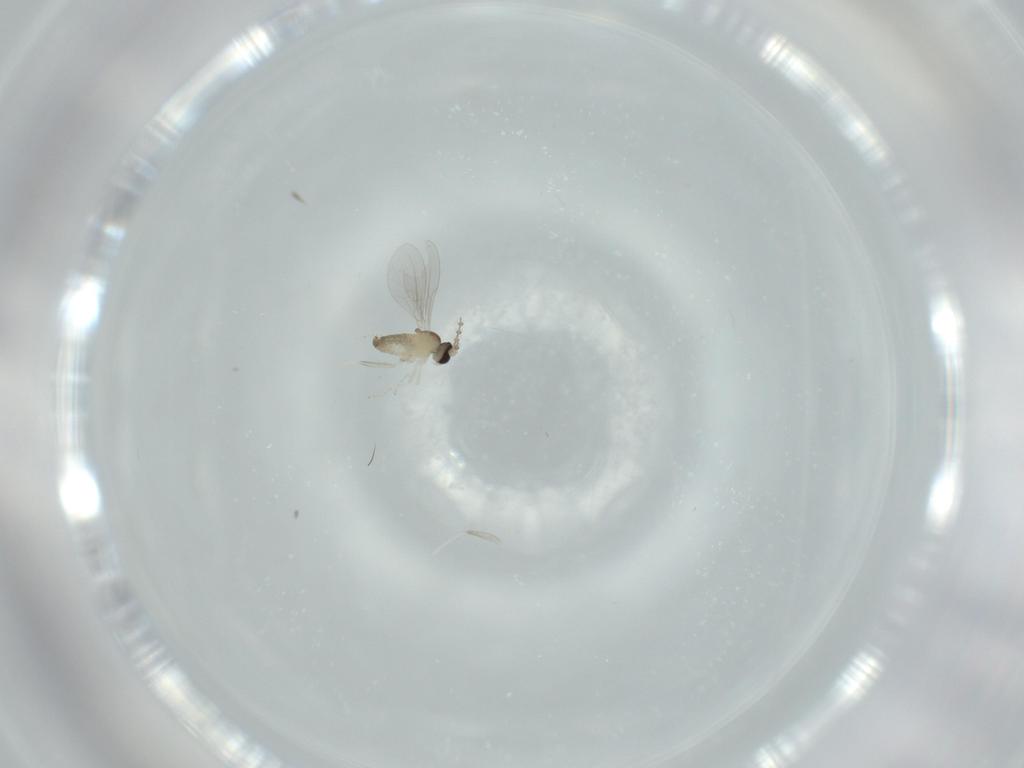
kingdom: Animalia
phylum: Arthropoda
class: Insecta
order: Diptera
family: Cecidomyiidae
